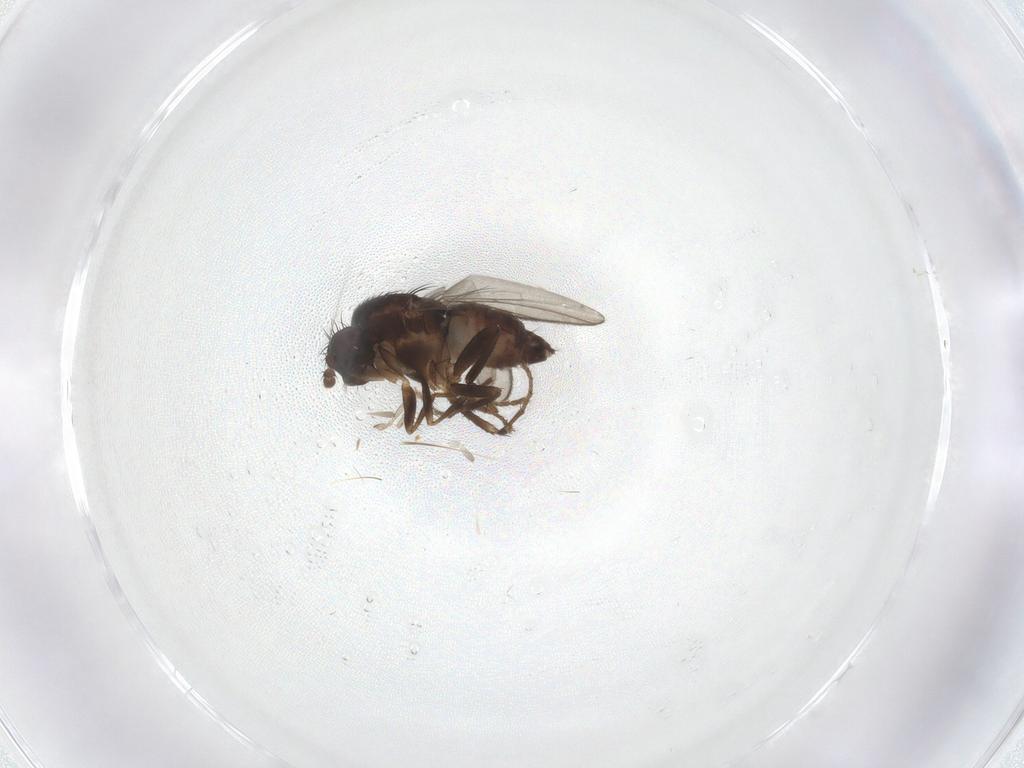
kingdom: Animalia
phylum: Arthropoda
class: Insecta
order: Diptera
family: Sphaeroceridae
